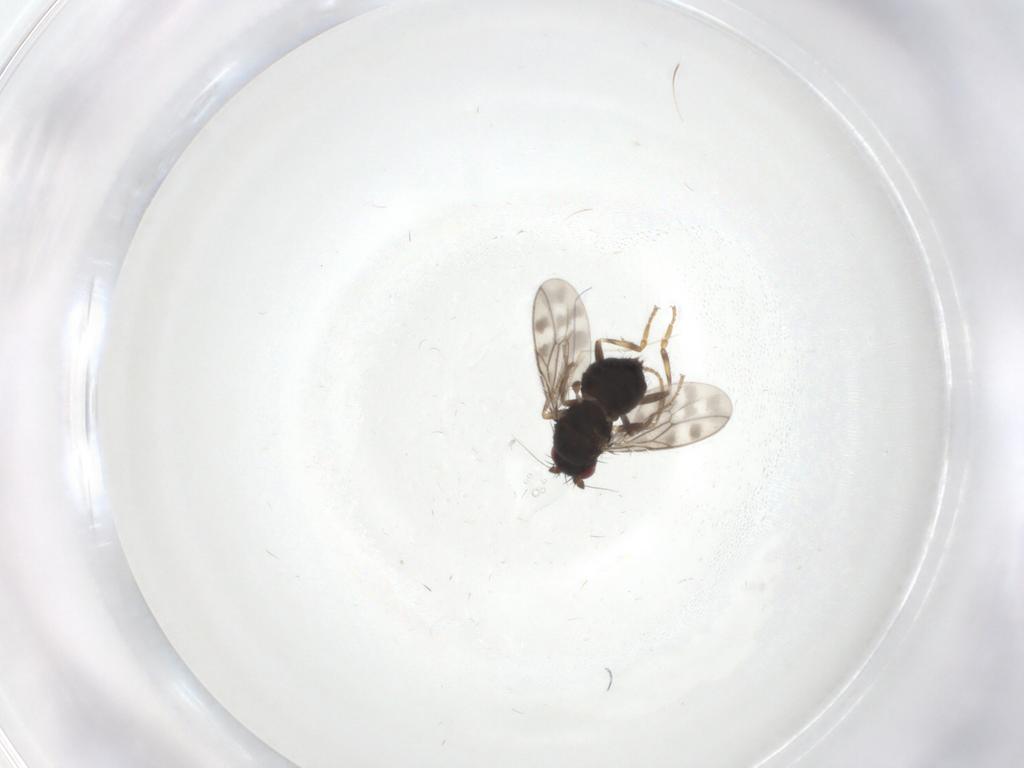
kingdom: Animalia
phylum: Arthropoda
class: Insecta
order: Diptera
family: Sphaeroceridae
